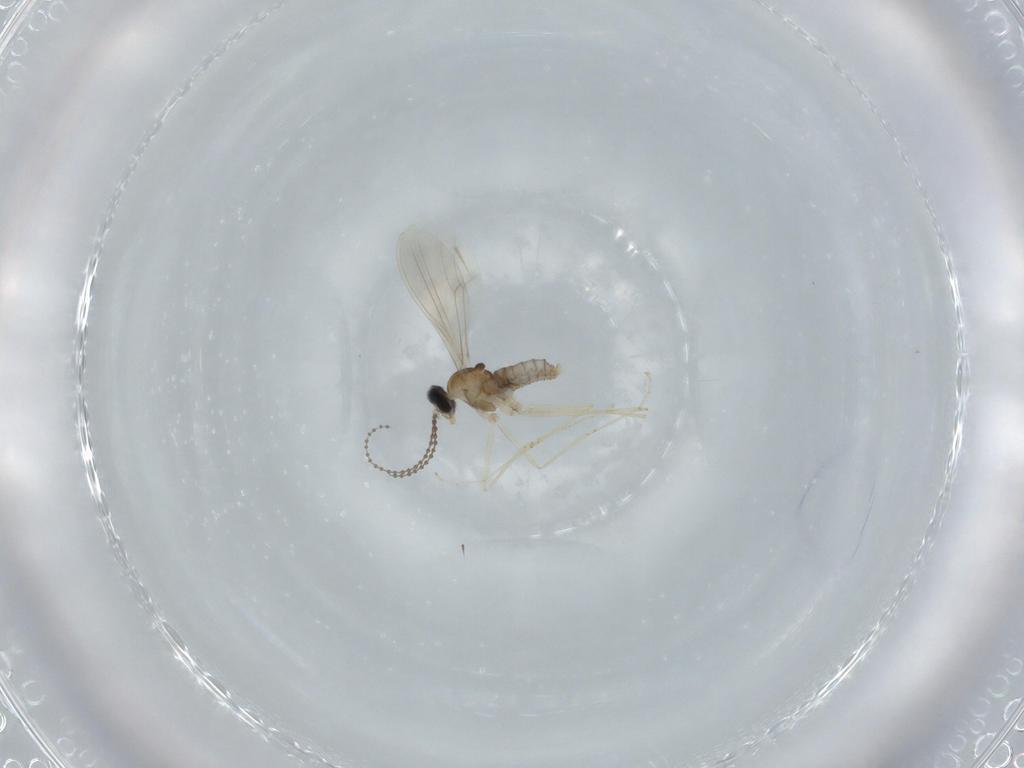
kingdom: Animalia
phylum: Arthropoda
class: Insecta
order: Diptera
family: Cecidomyiidae
